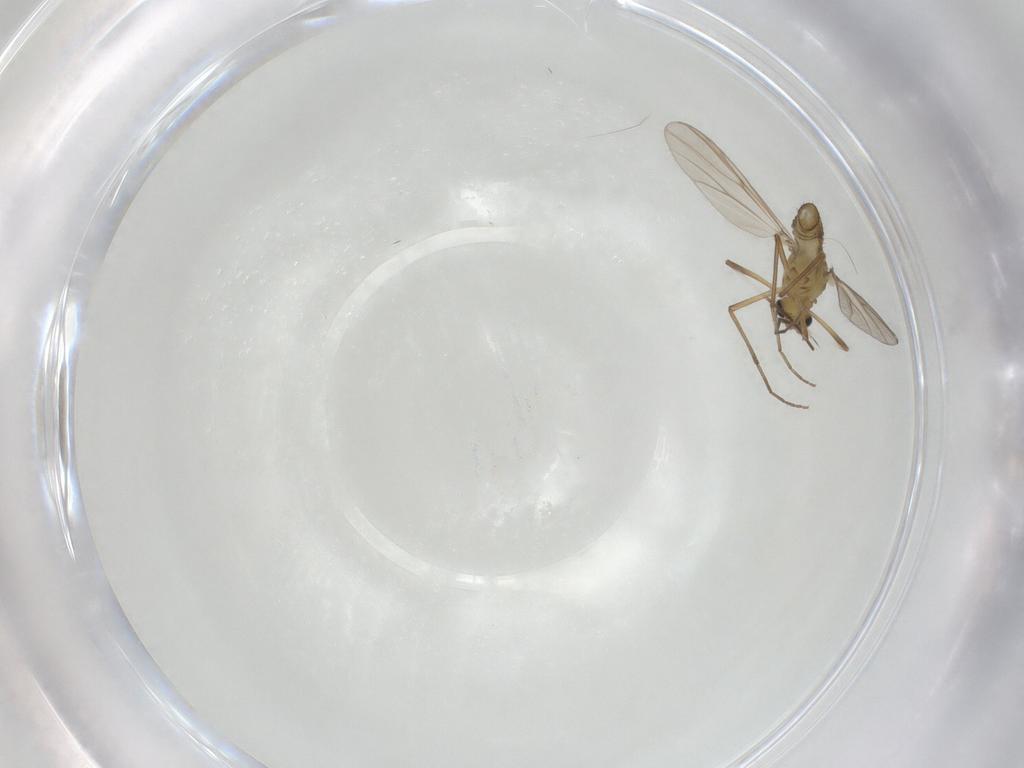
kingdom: Animalia
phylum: Arthropoda
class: Insecta
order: Diptera
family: Chironomidae
